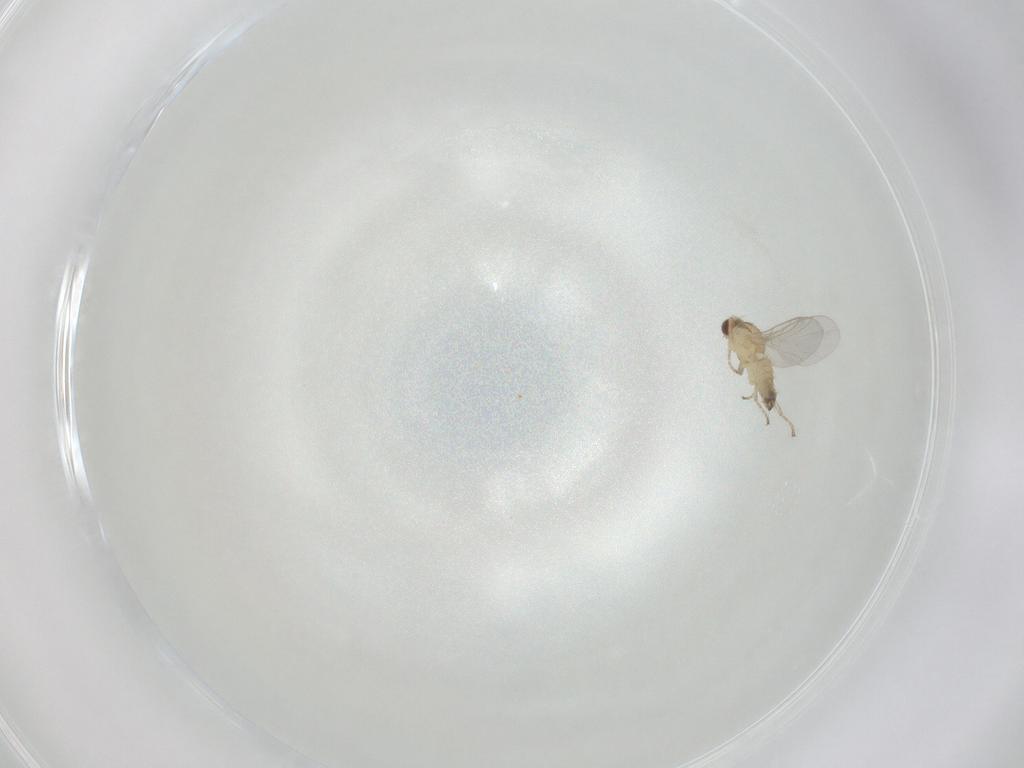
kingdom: Animalia
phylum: Arthropoda
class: Insecta
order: Diptera
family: Agromyzidae
